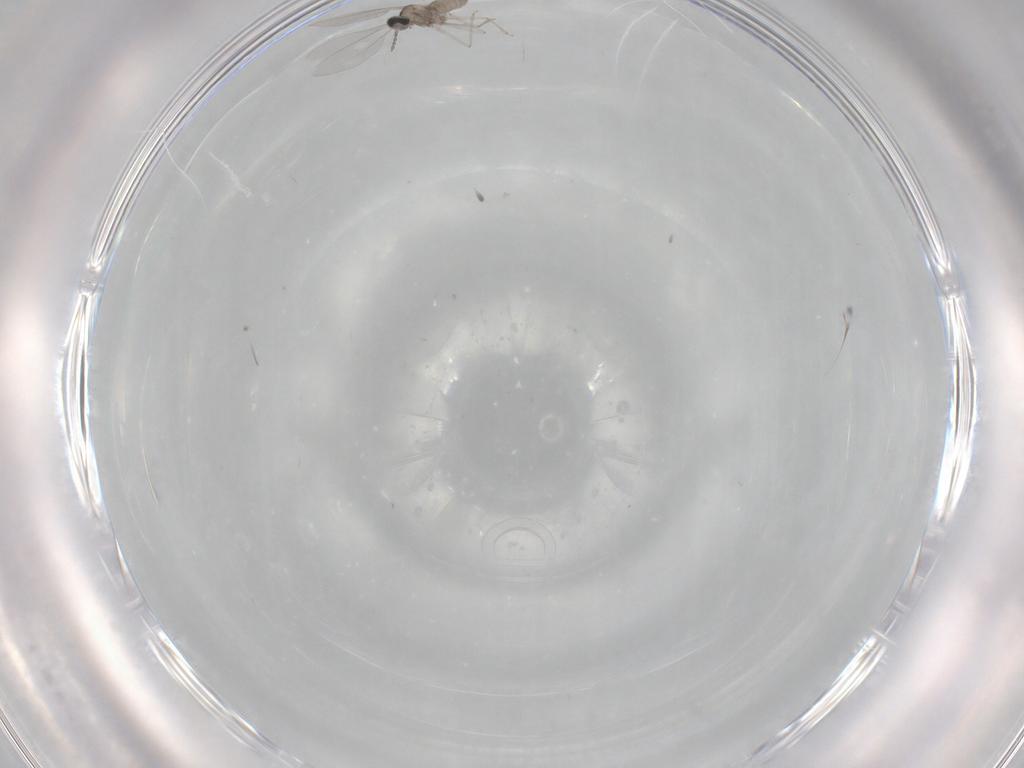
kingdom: Animalia
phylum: Arthropoda
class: Insecta
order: Diptera
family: Cecidomyiidae
